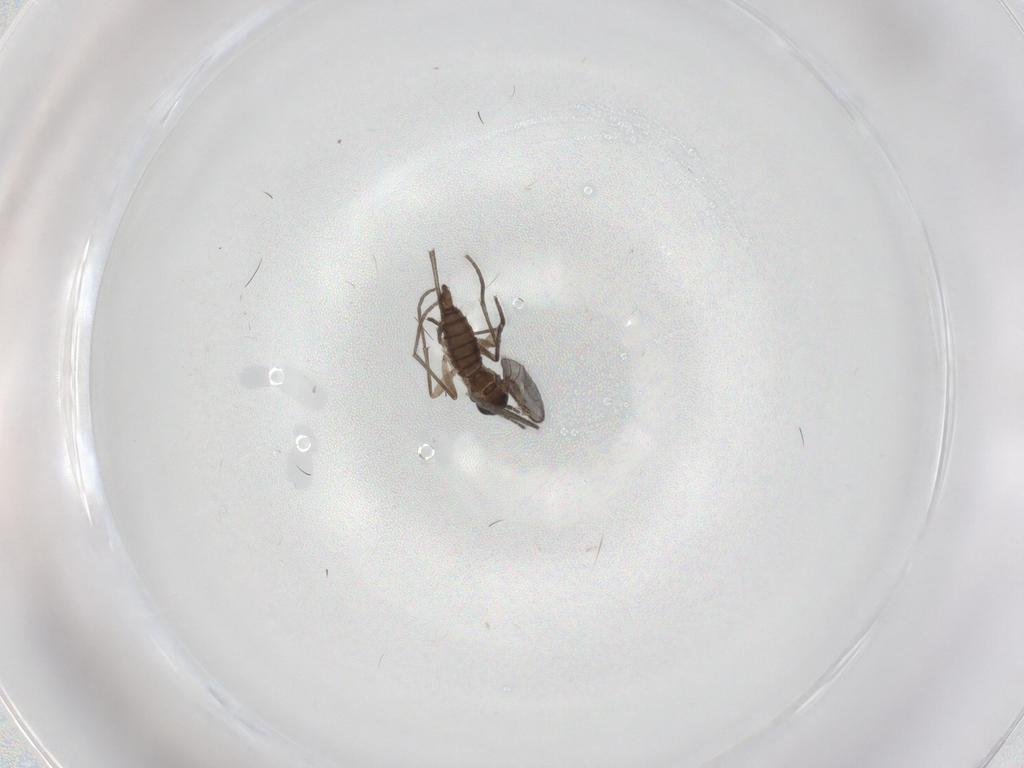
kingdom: Animalia
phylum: Arthropoda
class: Insecta
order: Diptera
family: Sciaridae
